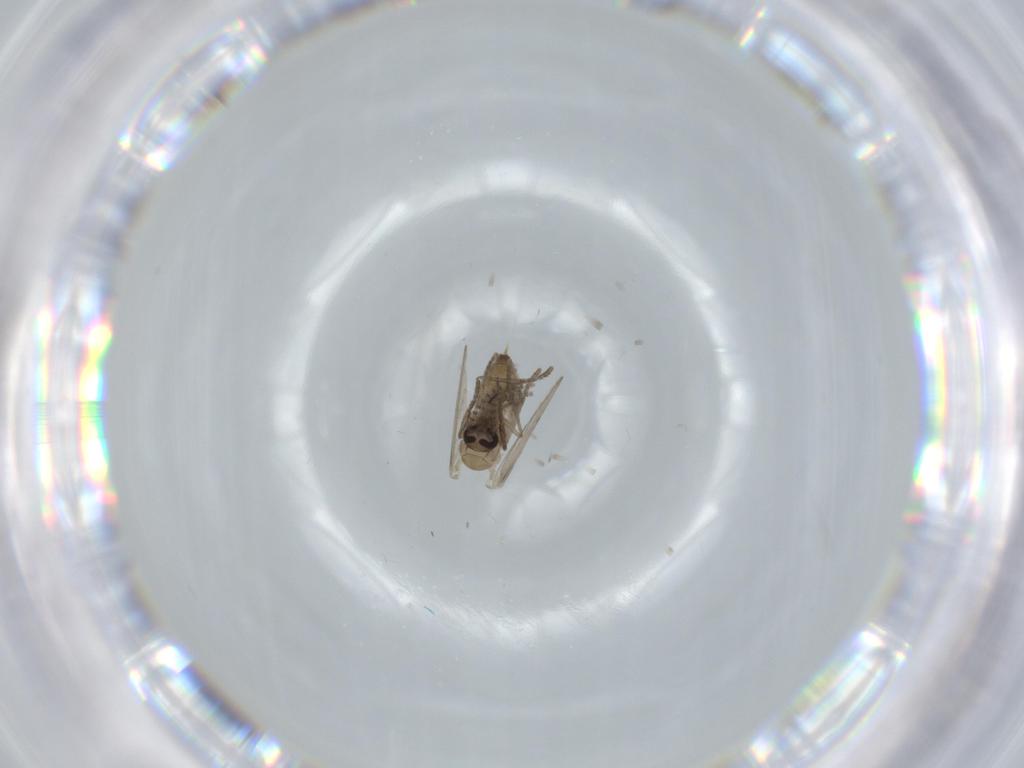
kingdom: Animalia
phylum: Arthropoda
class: Insecta
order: Diptera
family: Psychodidae
